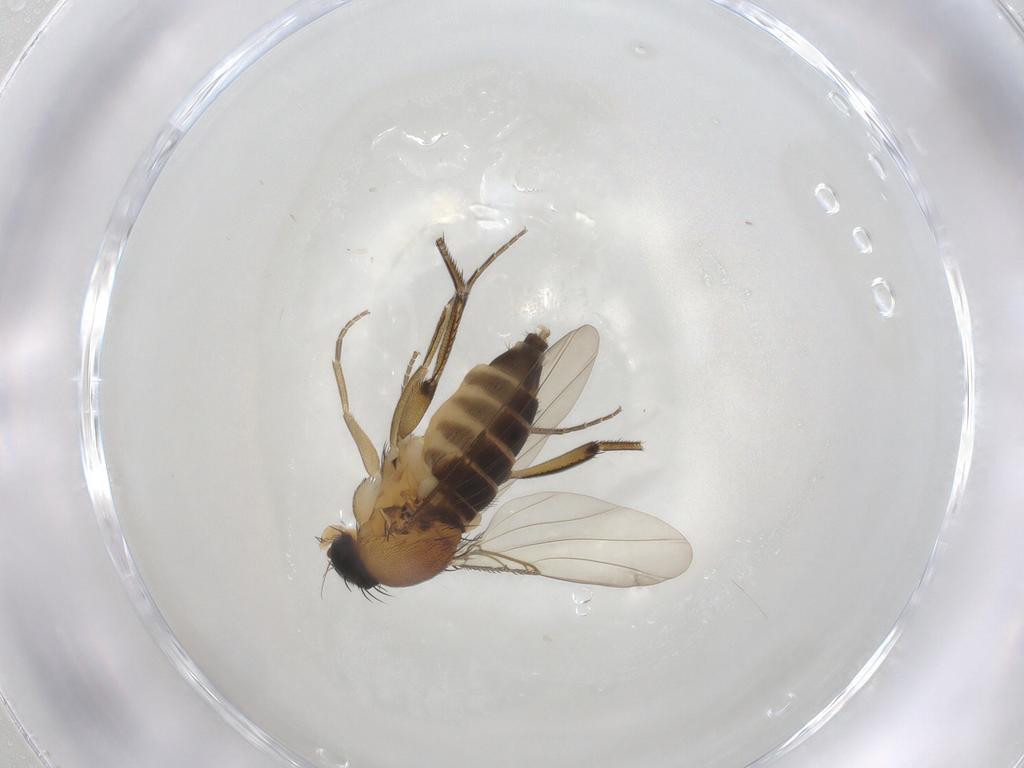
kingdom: Animalia
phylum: Arthropoda
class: Insecta
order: Diptera
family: Phoridae
